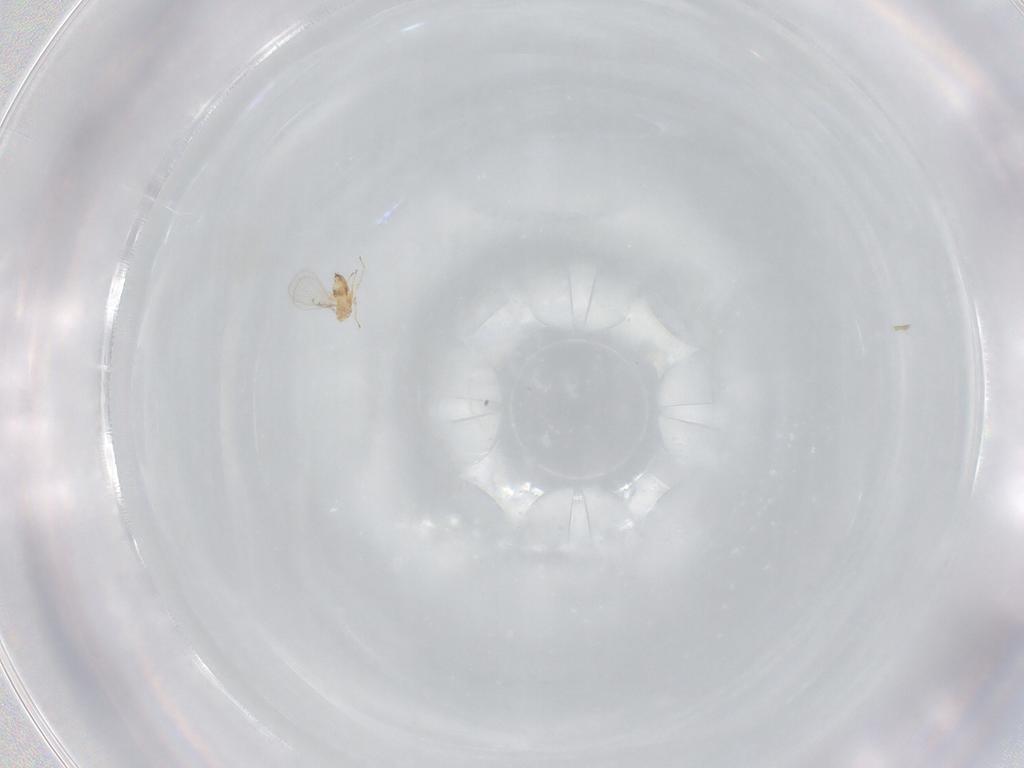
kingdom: Animalia
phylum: Arthropoda
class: Insecta
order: Hymenoptera
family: Trichogrammatidae
